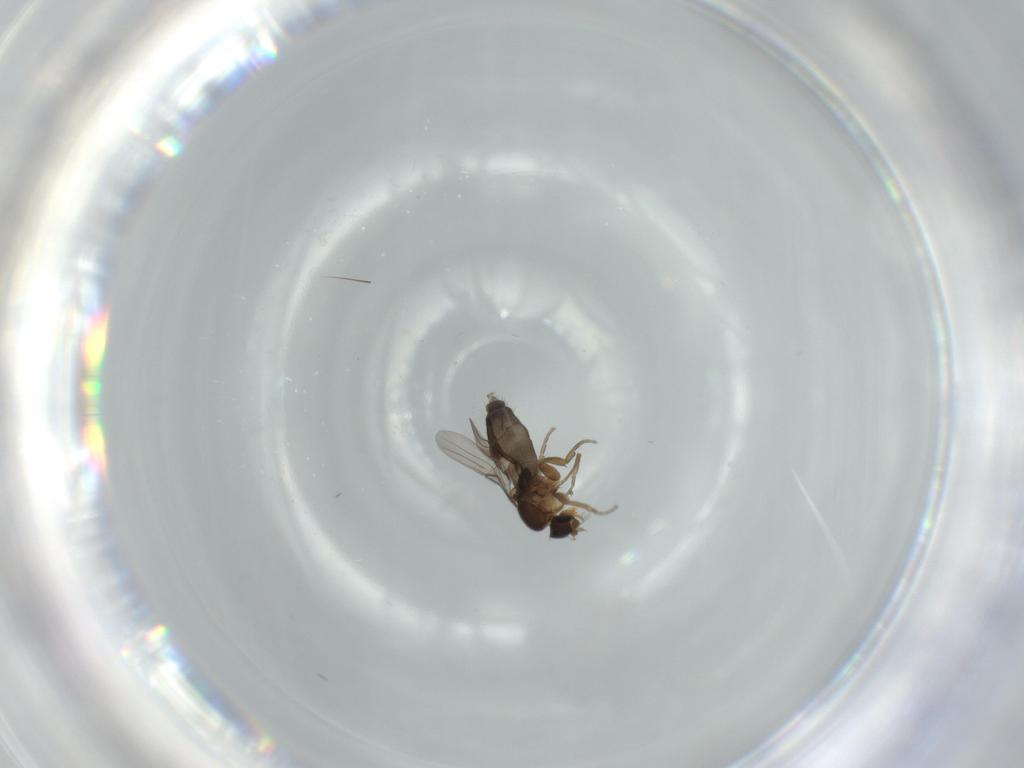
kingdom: Animalia
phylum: Arthropoda
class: Insecta
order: Diptera
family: Phoridae
